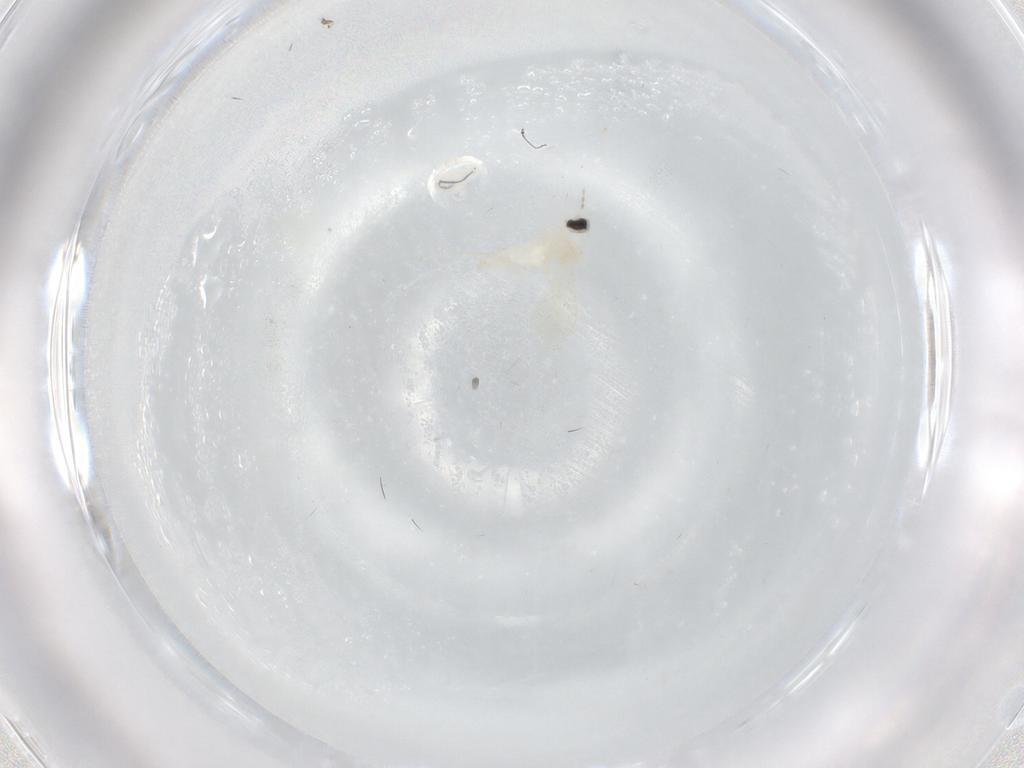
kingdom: Animalia
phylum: Arthropoda
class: Insecta
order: Diptera
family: Cecidomyiidae
